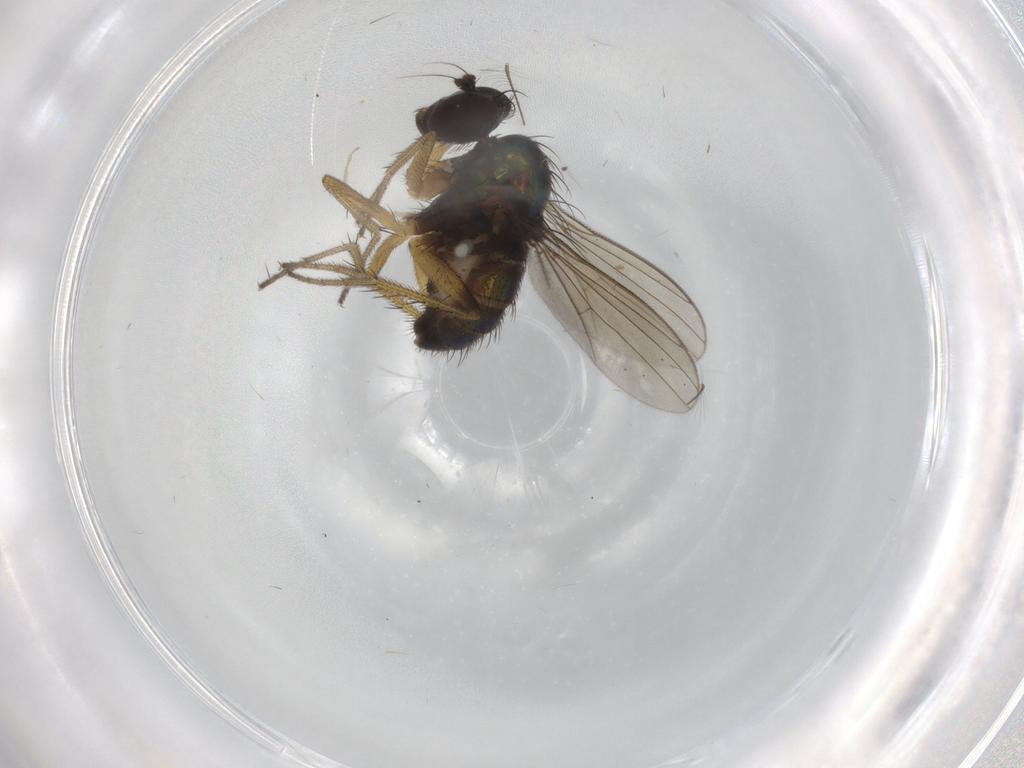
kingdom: Animalia
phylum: Arthropoda
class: Insecta
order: Diptera
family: Dolichopodidae
